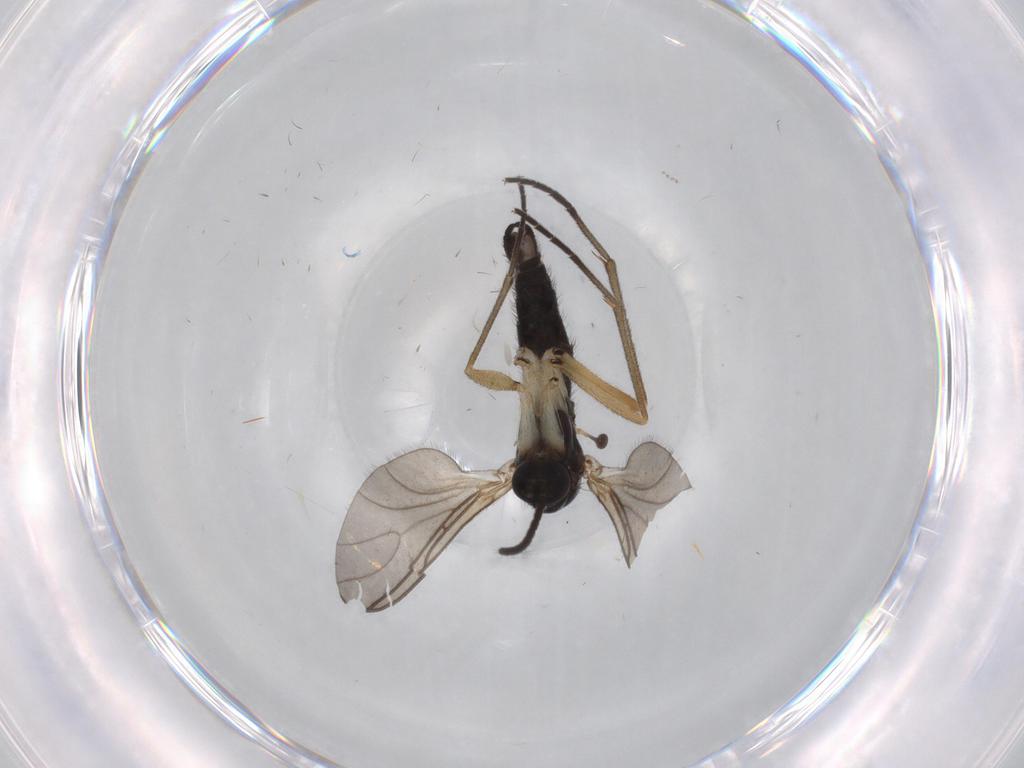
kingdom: Animalia
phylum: Arthropoda
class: Insecta
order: Diptera
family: Sciaridae
